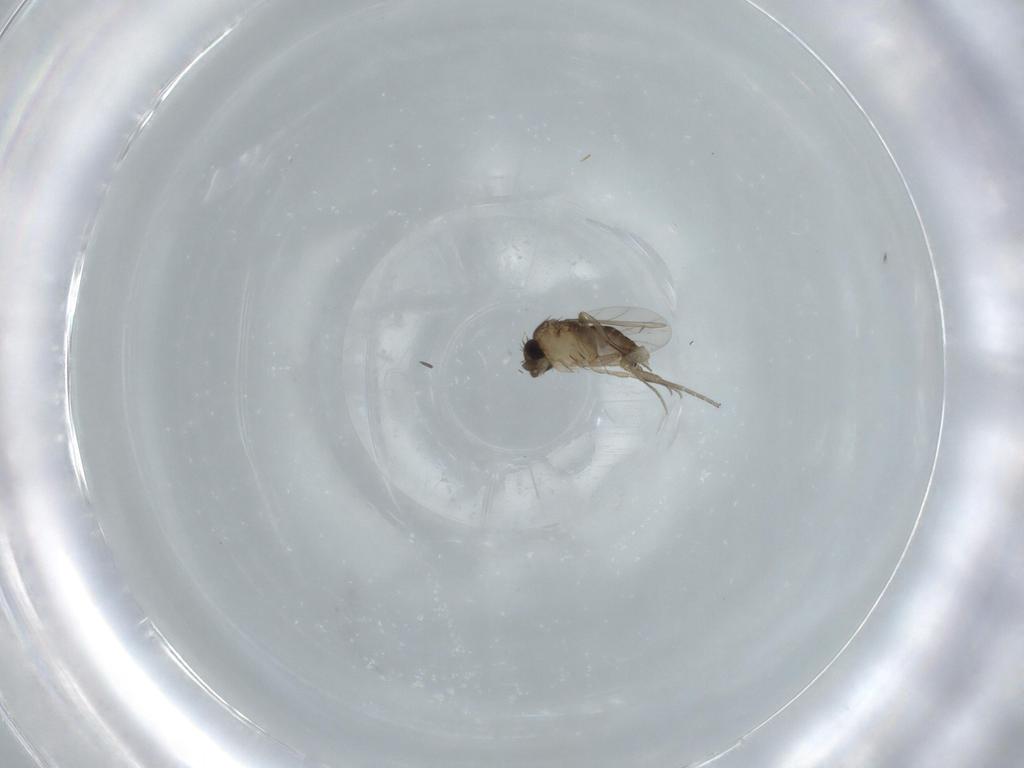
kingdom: Animalia
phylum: Arthropoda
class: Insecta
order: Diptera
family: Phoridae
